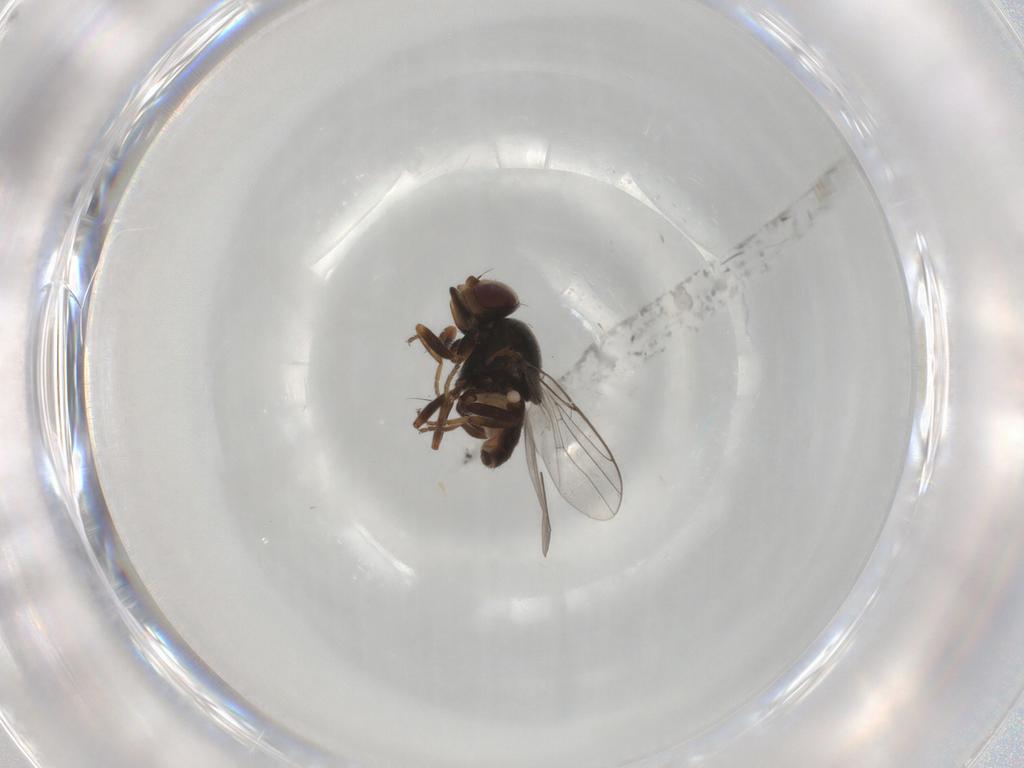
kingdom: Animalia
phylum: Arthropoda
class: Insecta
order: Diptera
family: Chloropidae
